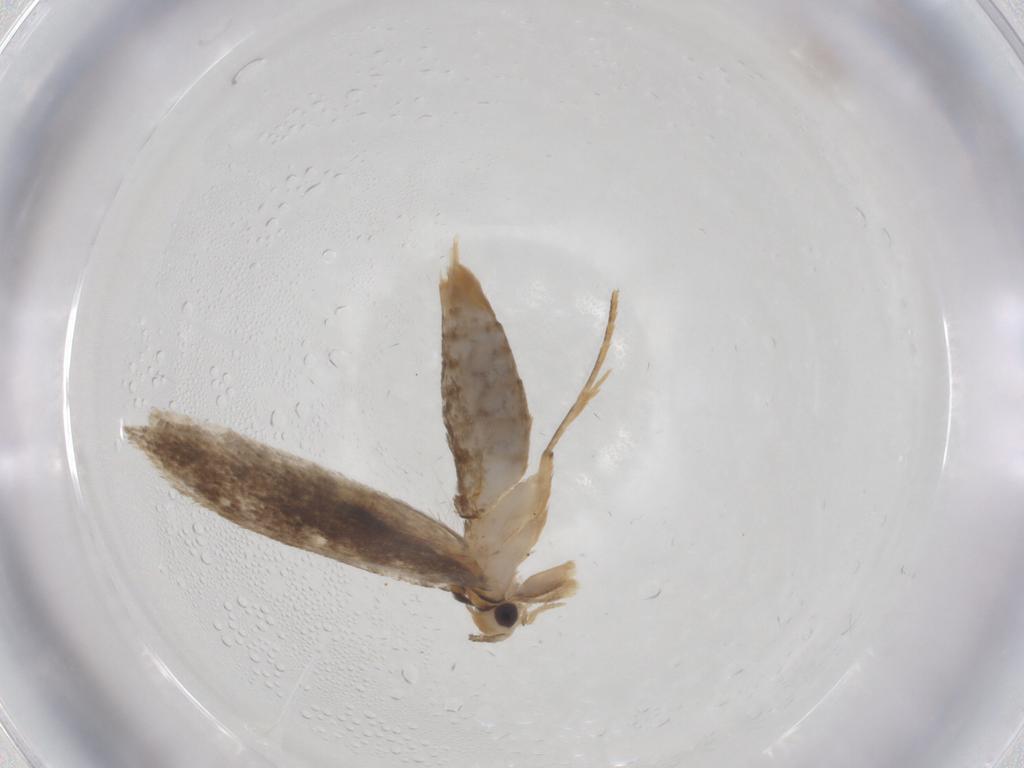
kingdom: Animalia
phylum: Arthropoda
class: Insecta
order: Lepidoptera
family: Tineidae
